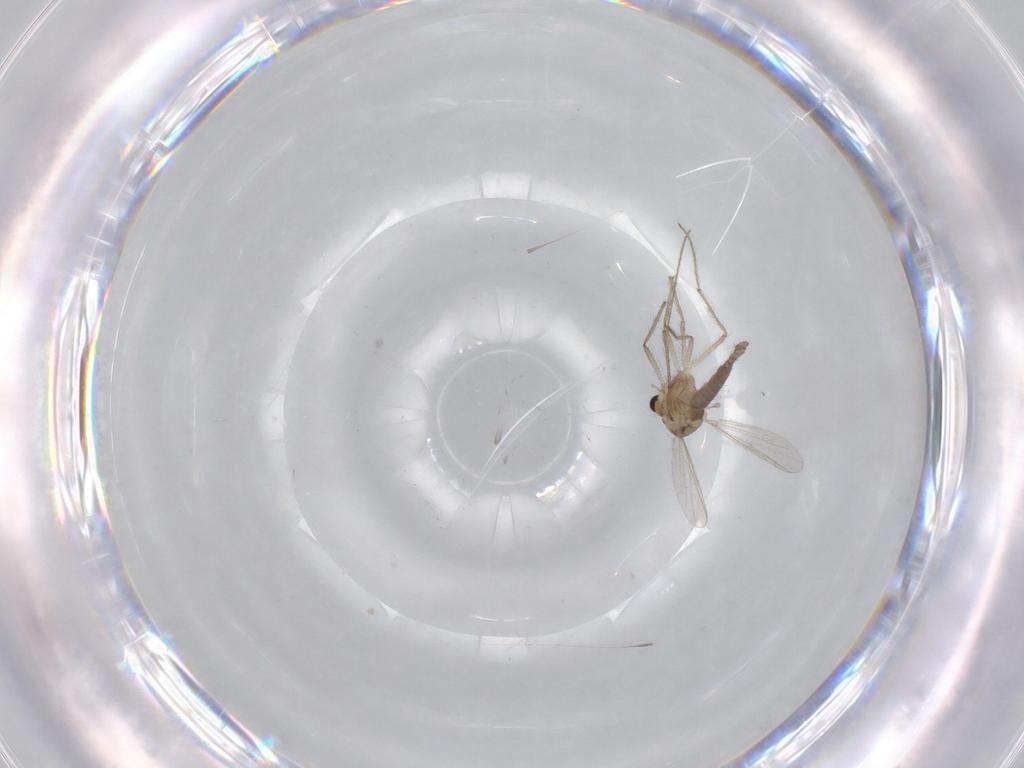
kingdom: Animalia
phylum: Arthropoda
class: Insecta
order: Diptera
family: Chironomidae
